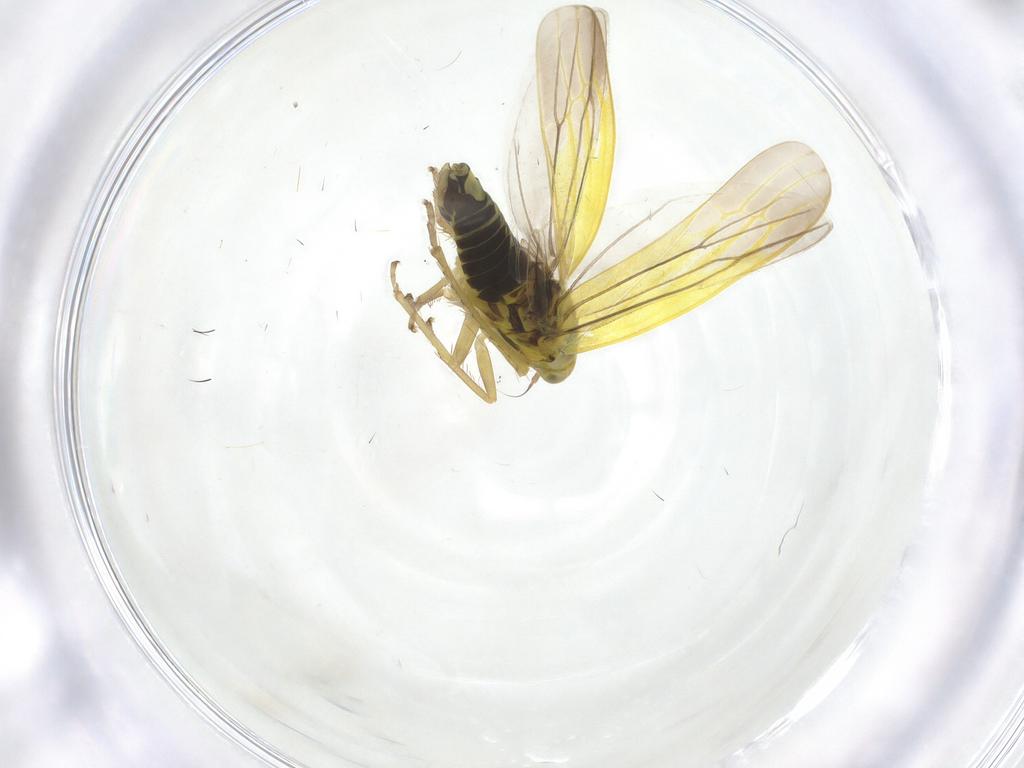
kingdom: Animalia
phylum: Arthropoda
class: Insecta
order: Hemiptera
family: Cicadellidae
